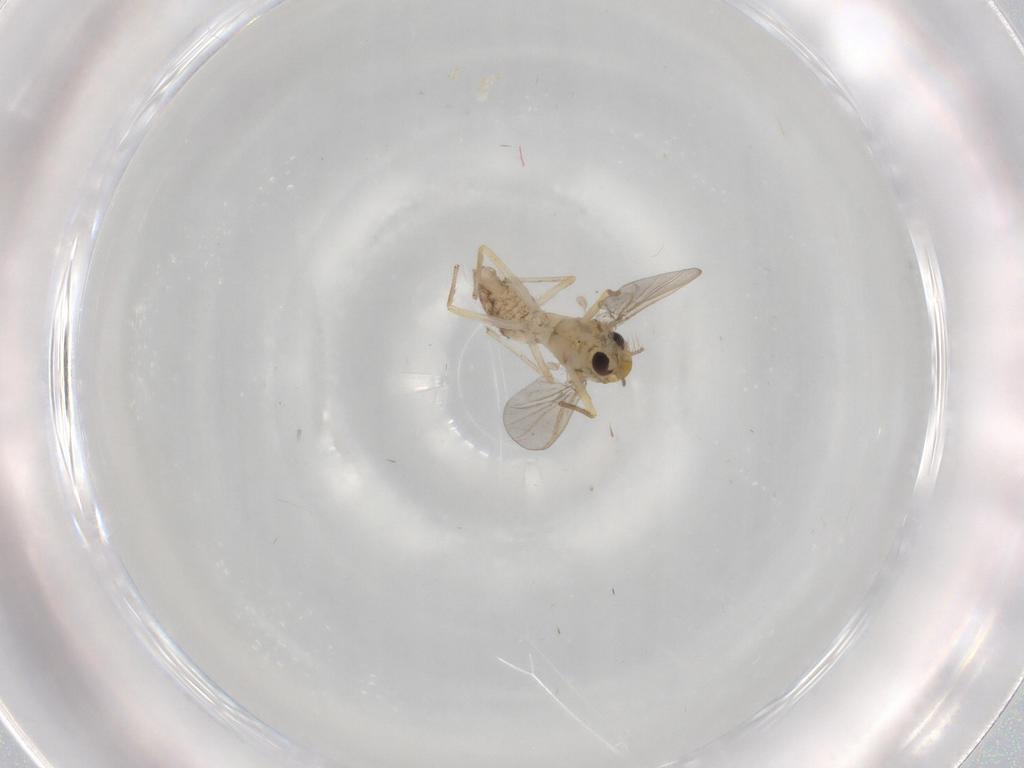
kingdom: Animalia
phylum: Arthropoda
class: Insecta
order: Diptera
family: Chironomidae
